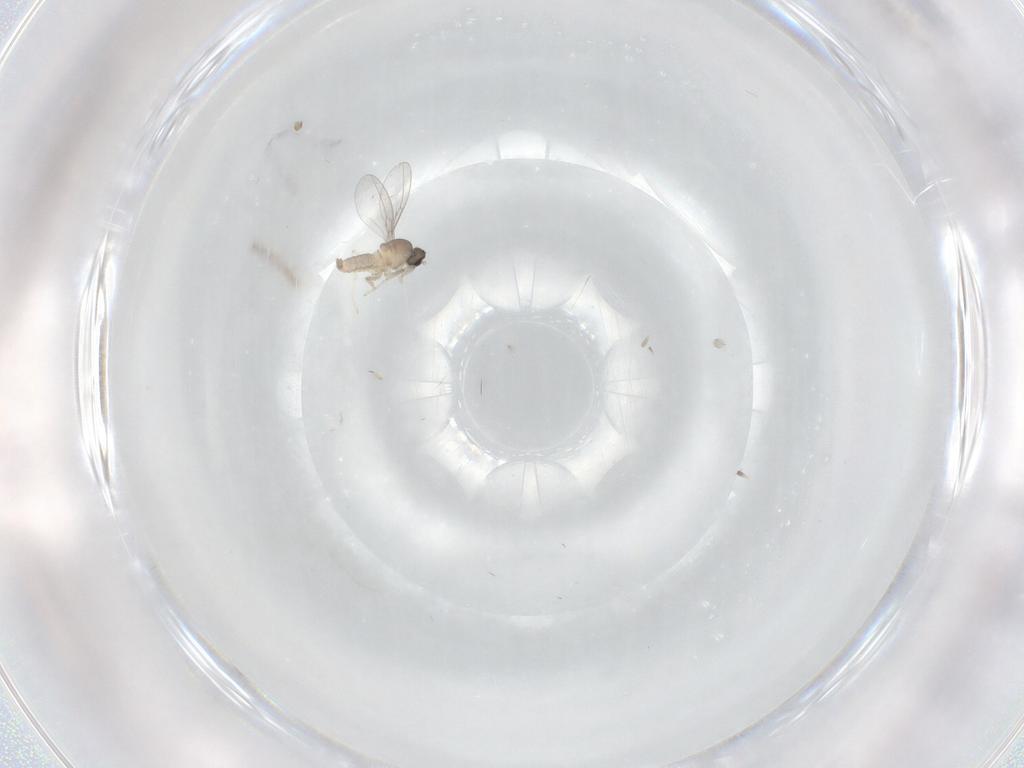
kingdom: Animalia
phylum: Arthropoda
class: Insecta
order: Diptera
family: Cecidomyiidae
